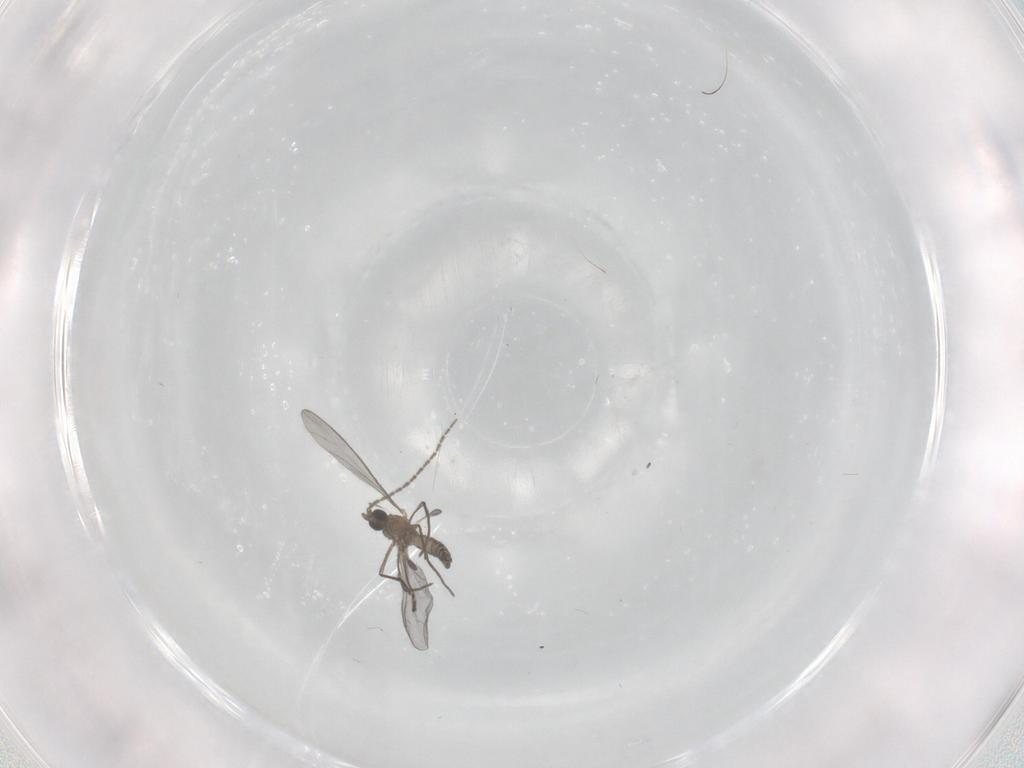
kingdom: Animalia
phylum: Arthropoda
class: Insecta
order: Diptera
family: Sciaridae
